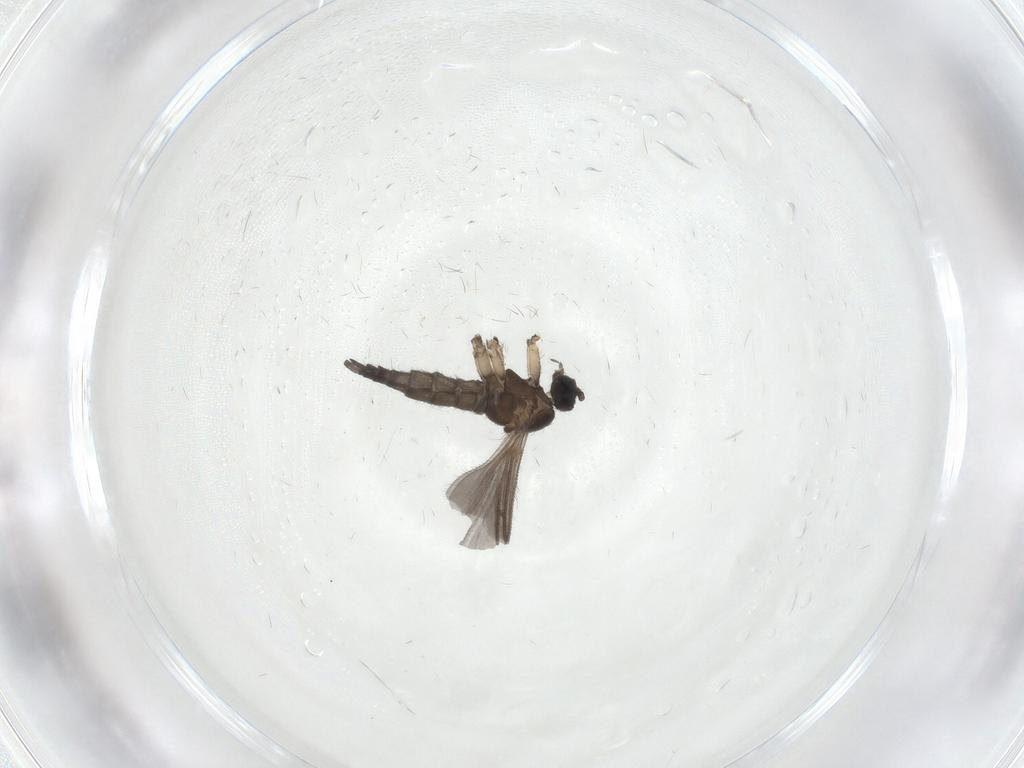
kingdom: Animalia
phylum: Arthropoda
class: Insecta
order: Diptera
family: Sciaridae
